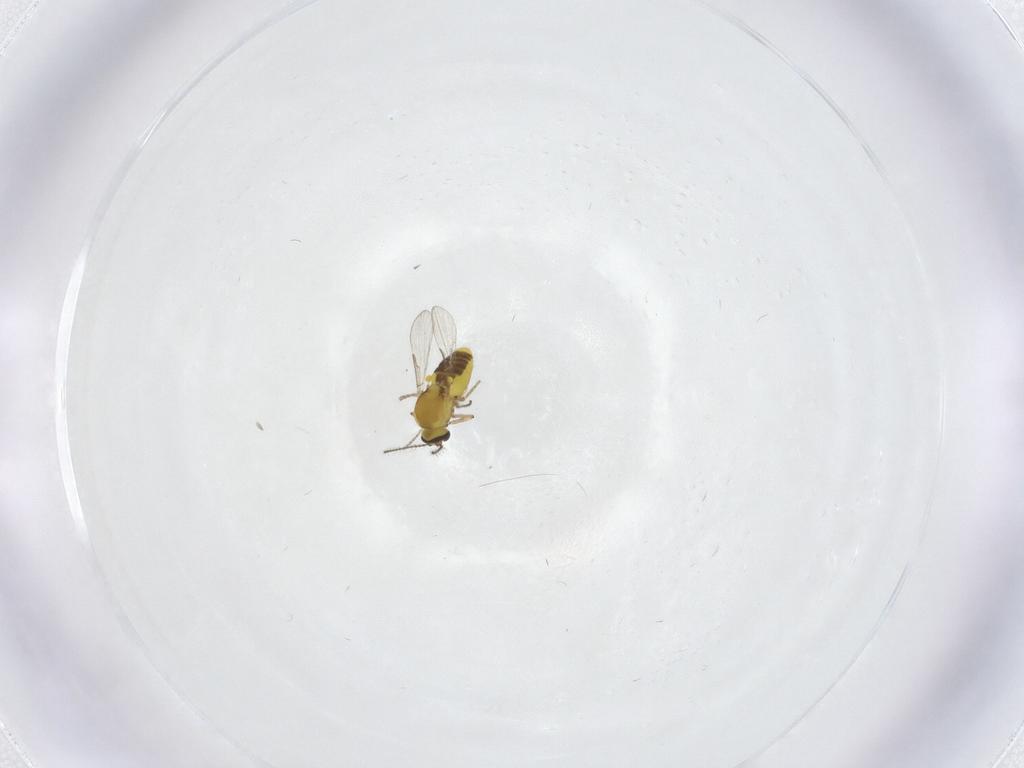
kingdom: Animalia
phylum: Arthropoda
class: Insecta
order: Diptera
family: Ceratopogonidae
